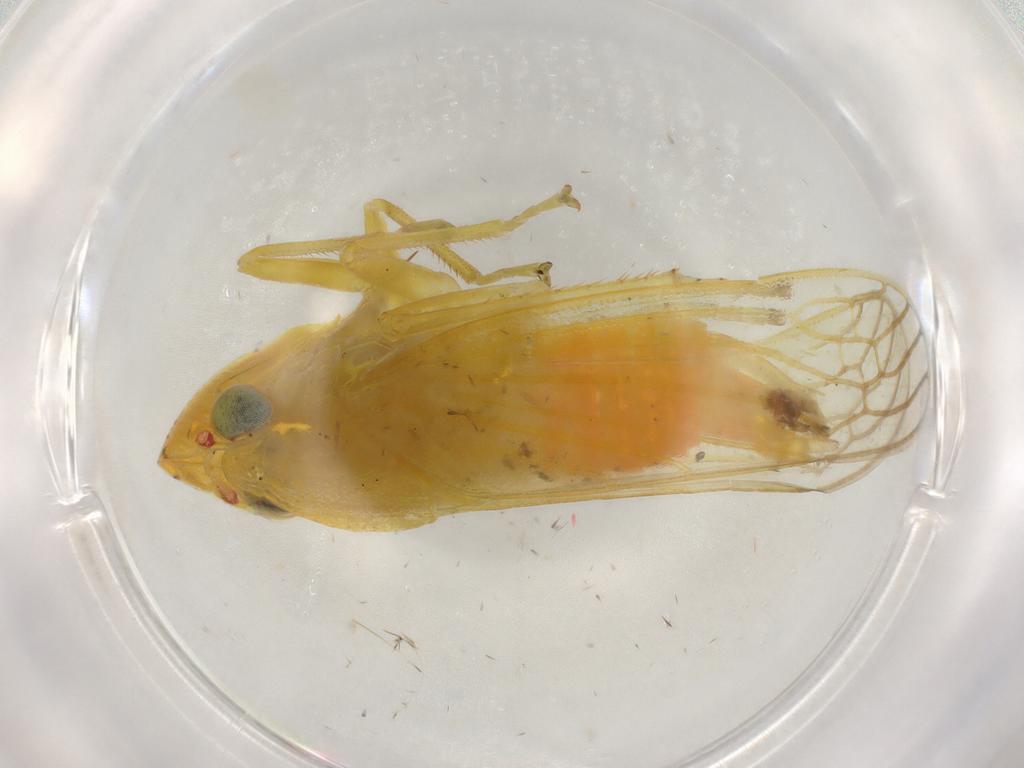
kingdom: Animalia
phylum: Arthropoda
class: Insecta
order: Hemiptera
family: Cicadellidae
